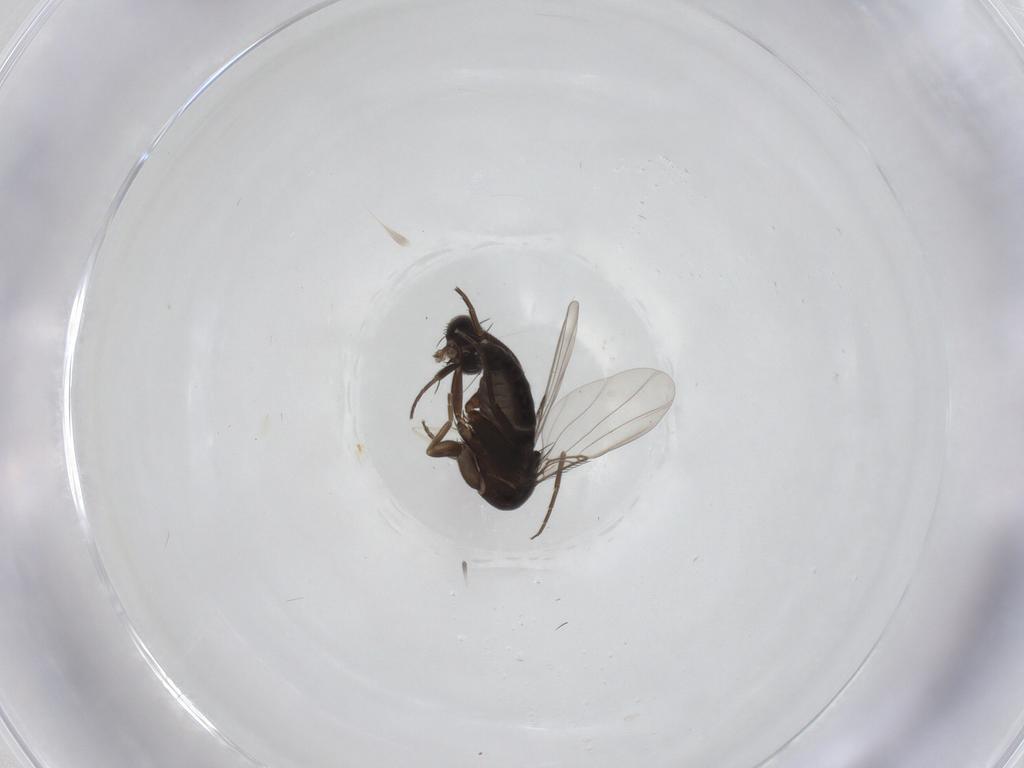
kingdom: Animalia
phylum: Arthropoda
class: Insecta
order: Diptera
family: Cecidomyiidae
